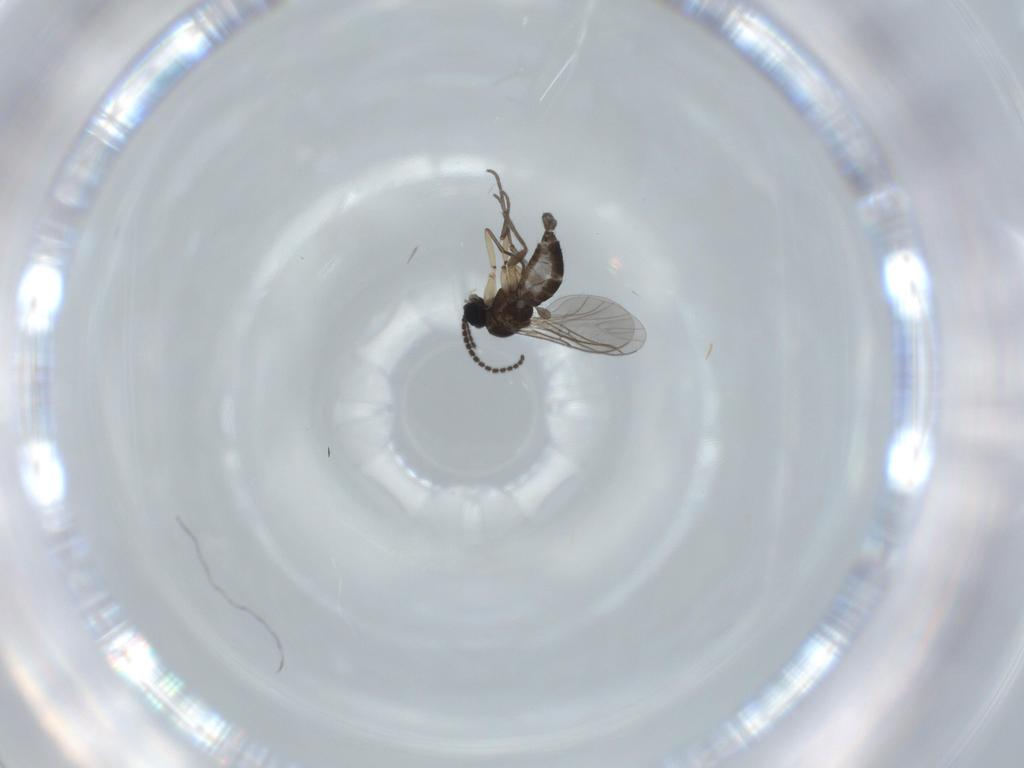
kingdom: Animalia
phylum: Arthropoda
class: Insecta
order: Diptera
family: Sciaridae
